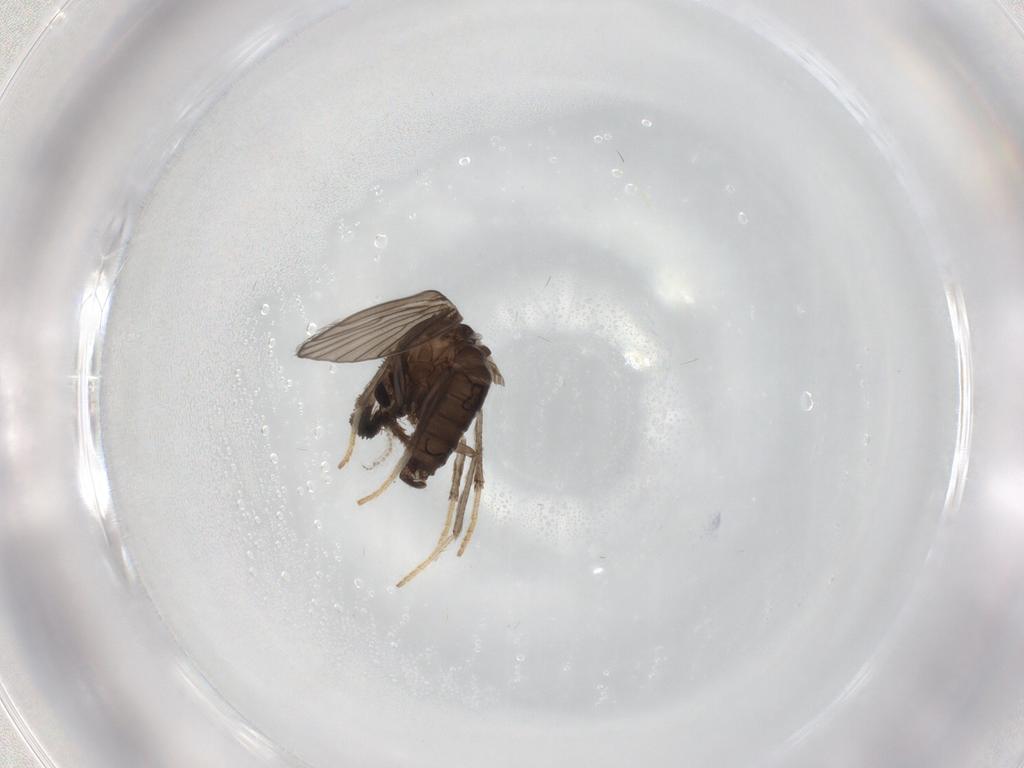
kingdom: Animalia
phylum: Arthropoda
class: Insecta
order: Diptera
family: Psychodidae
